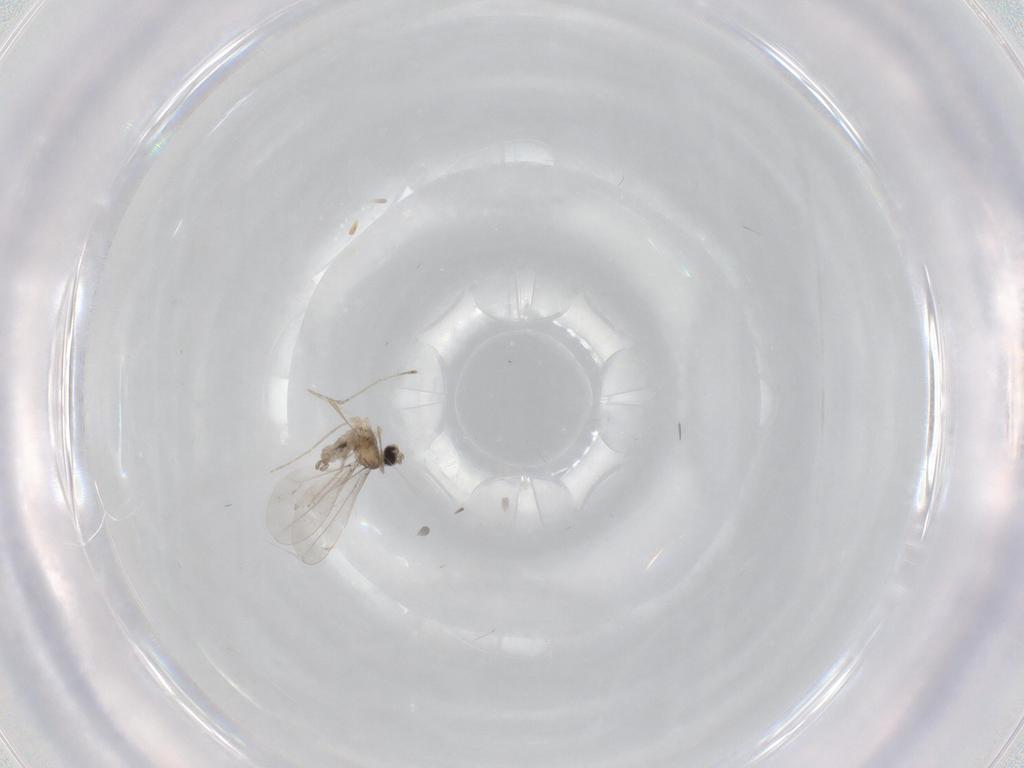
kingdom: Animalia
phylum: Arthropoda
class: Insecta
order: Diptera
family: Cecidomyiidae
